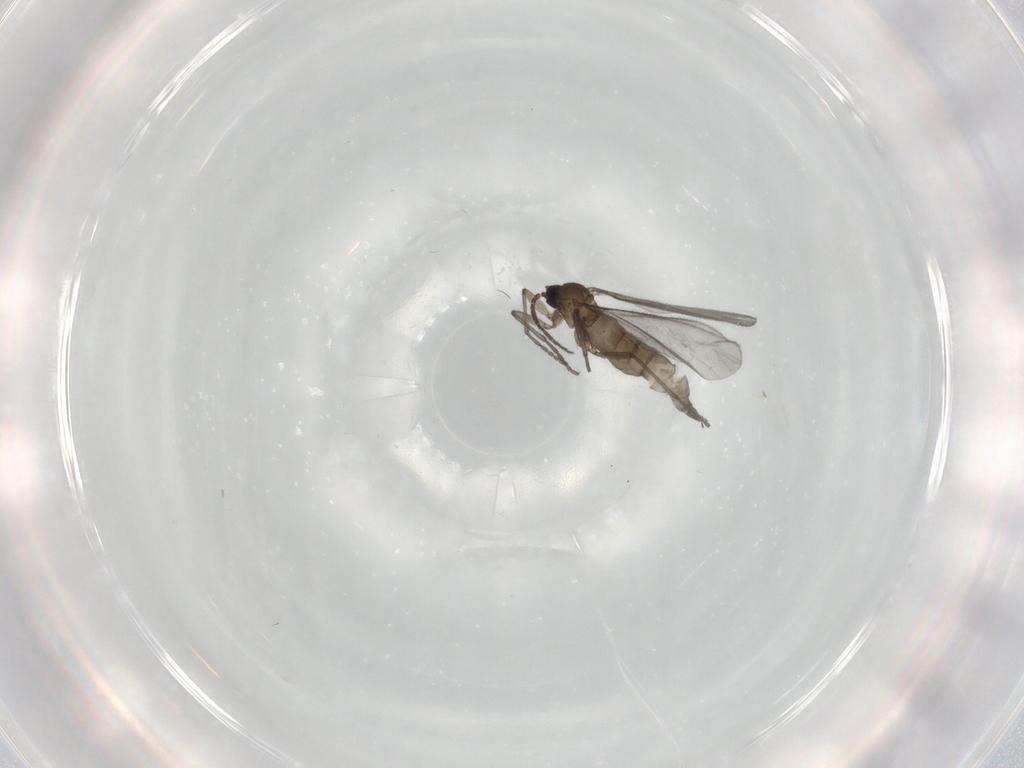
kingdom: Animalia
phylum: Arthropoda
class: Insecta
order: Diptera
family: Sciaridae
